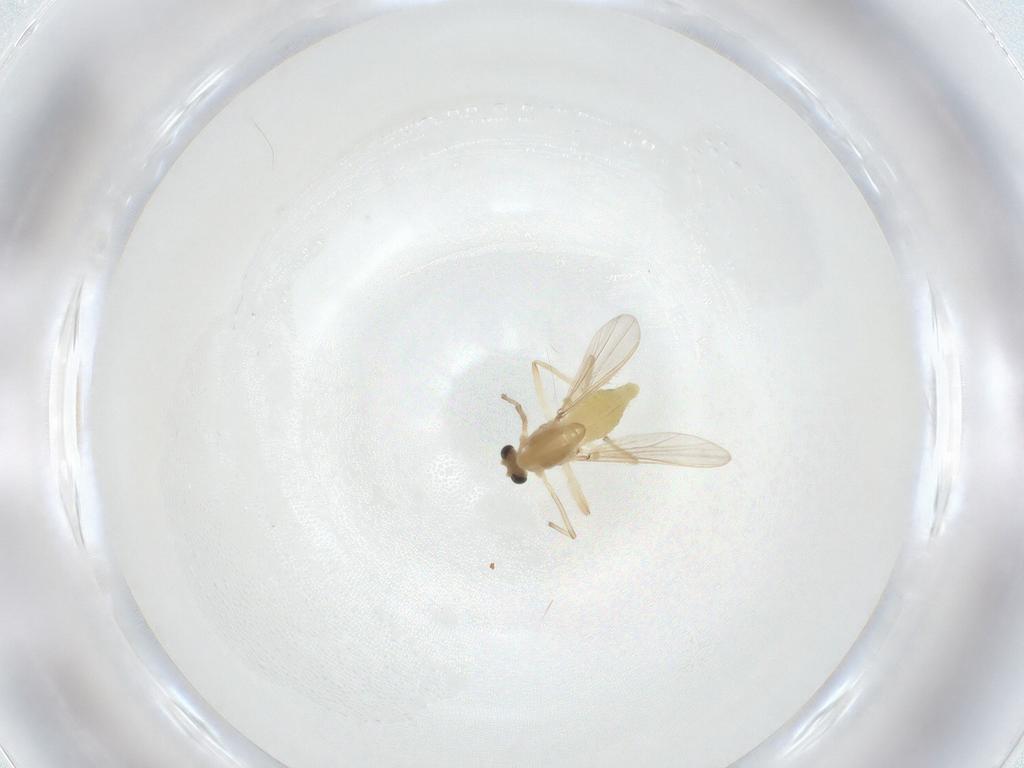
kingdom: Animalia
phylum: Arthropoda
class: Insecta
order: Diptera
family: Chironomidae
